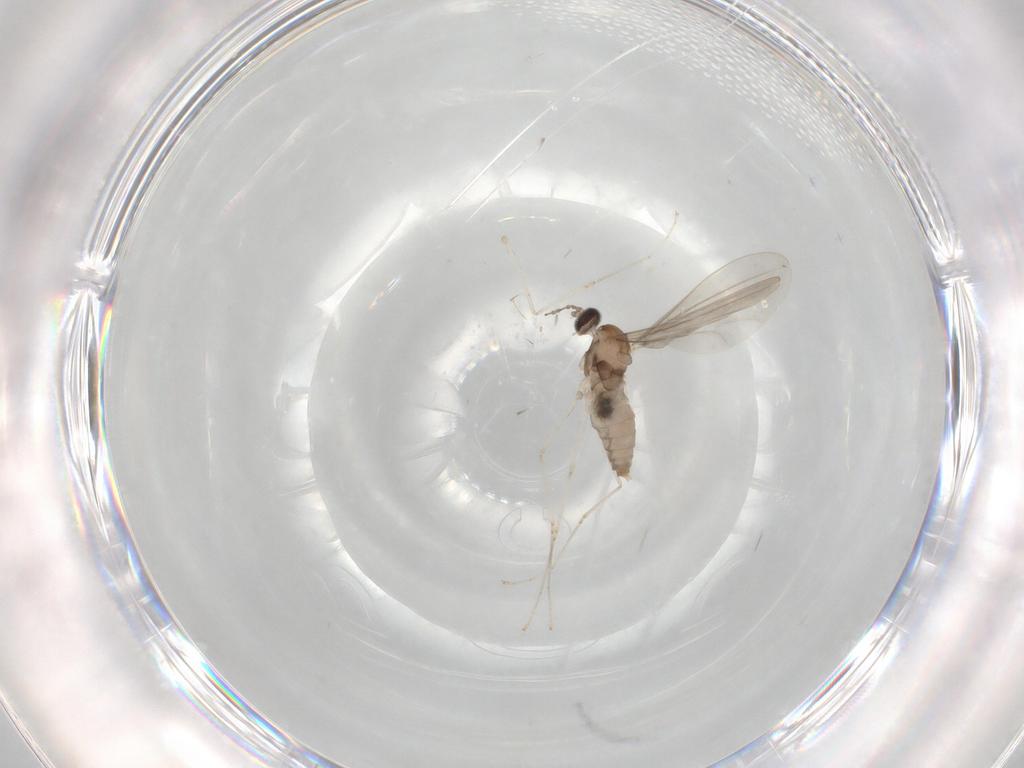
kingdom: Animalia
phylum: Arthropoda
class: Insecta
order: Diptera
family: Cecidomyiidae
